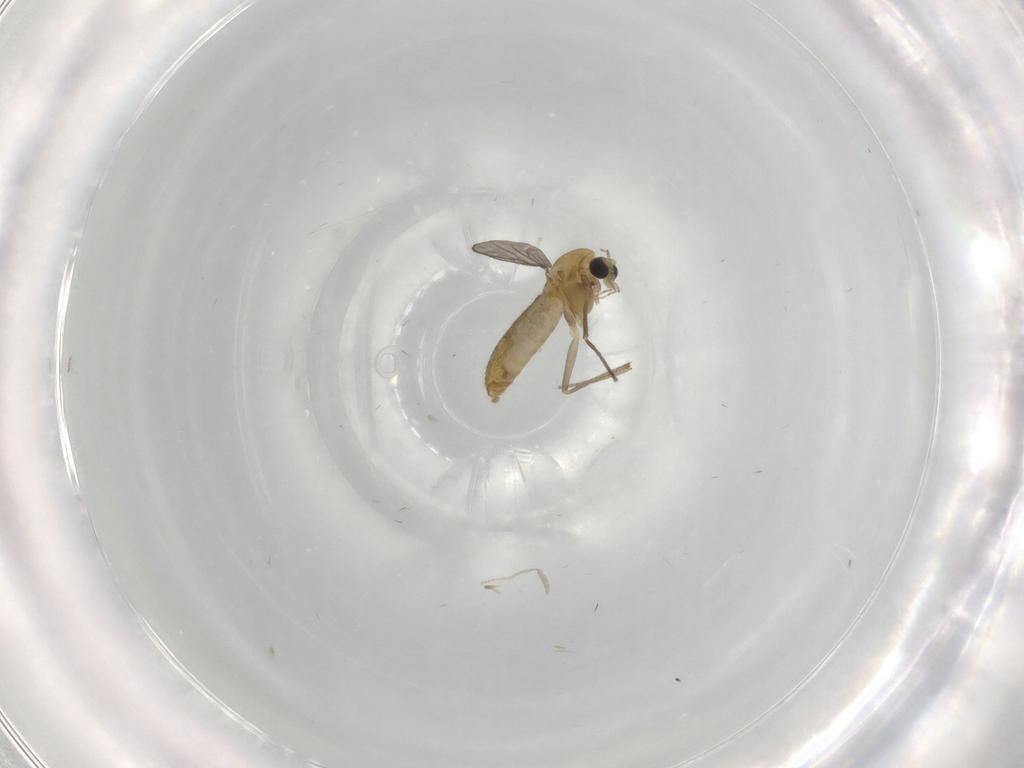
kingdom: Animalia
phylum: Arthropoda
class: Insecta
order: Diptera
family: Chironomidae
